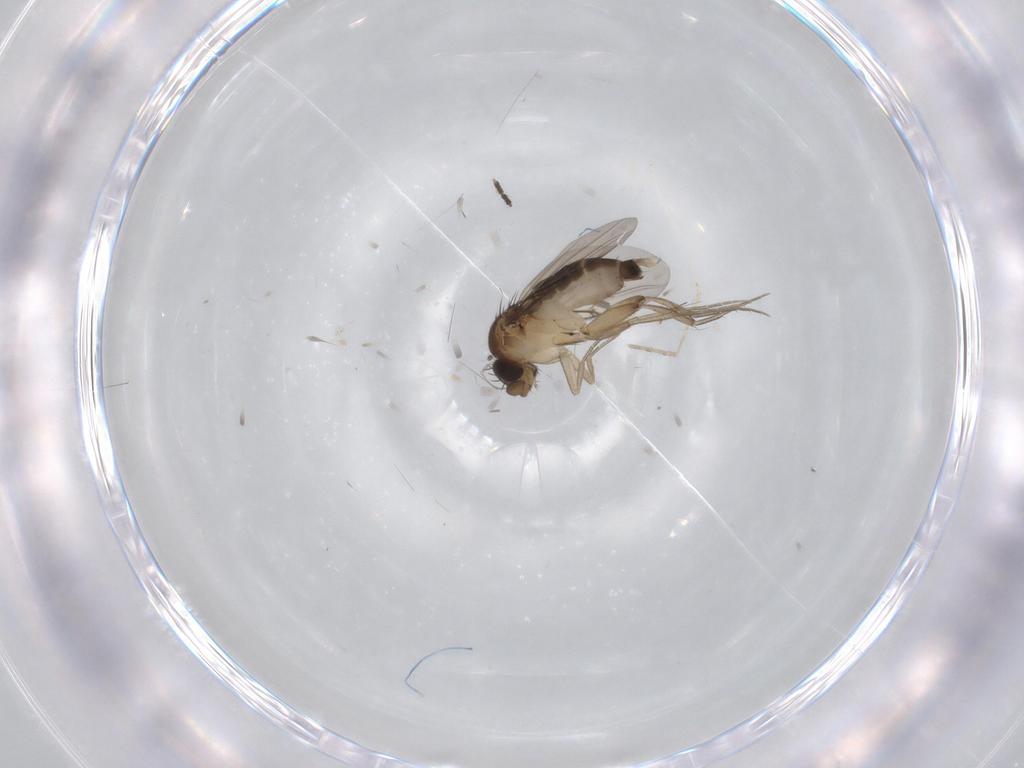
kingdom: Animalia
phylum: Arthropoda
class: Insecta
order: Diptera
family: Phoridae
